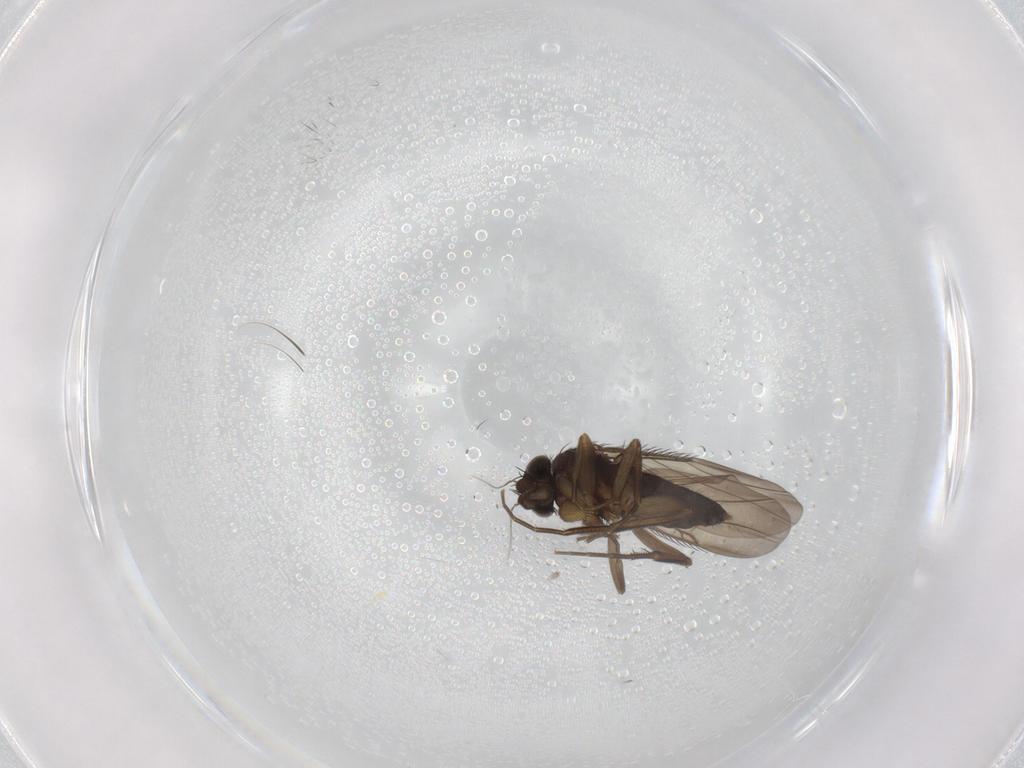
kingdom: Animalia
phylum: Arthropoda
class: Insecta
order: Diptera
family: Phoridae
